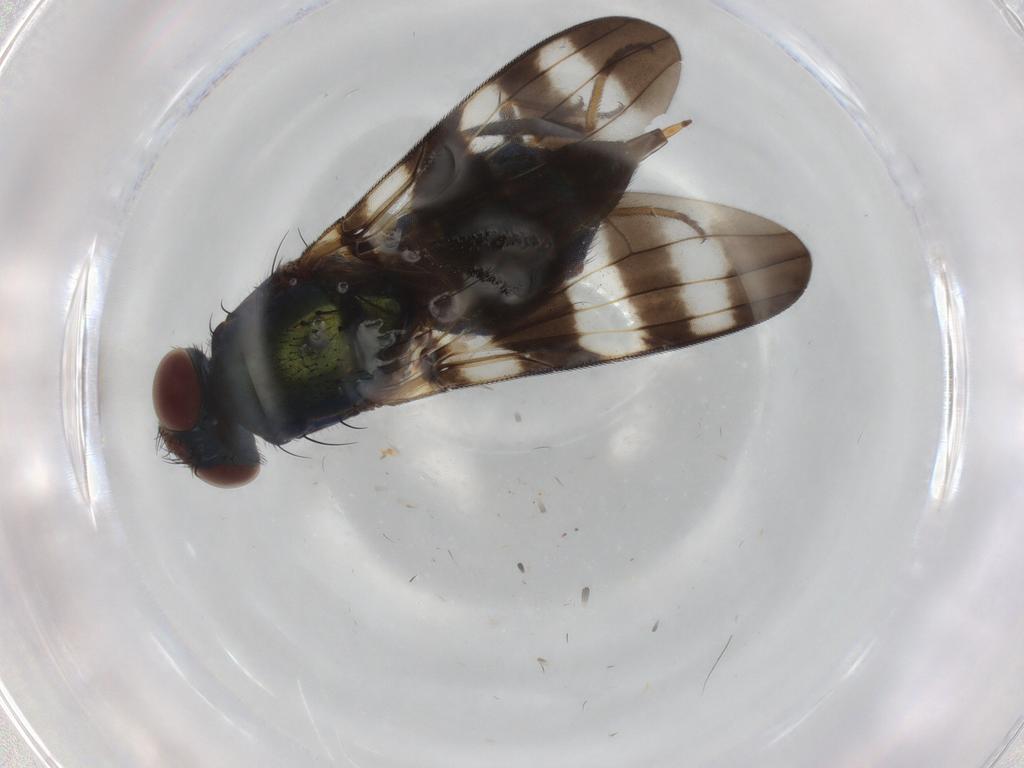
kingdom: Animalia
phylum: Arthropoda
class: Insecta
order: Diptera
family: Ulidiidae
